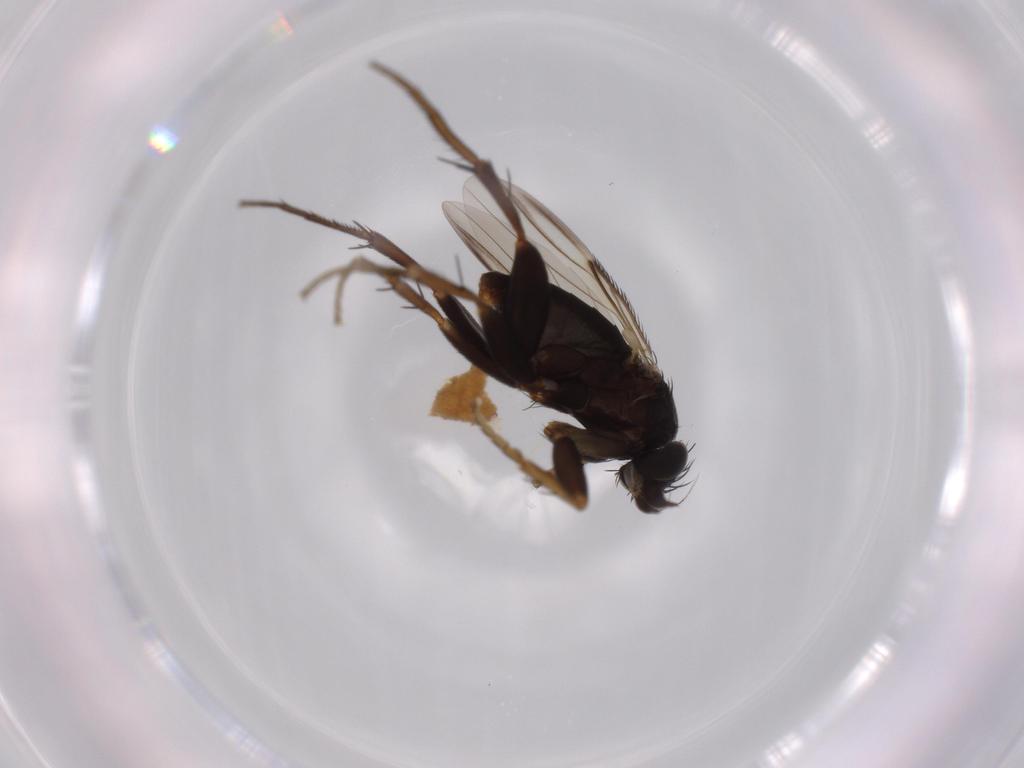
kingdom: Animalia
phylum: Arthropoda
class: Insecta
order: Diptera
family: Phoridae
